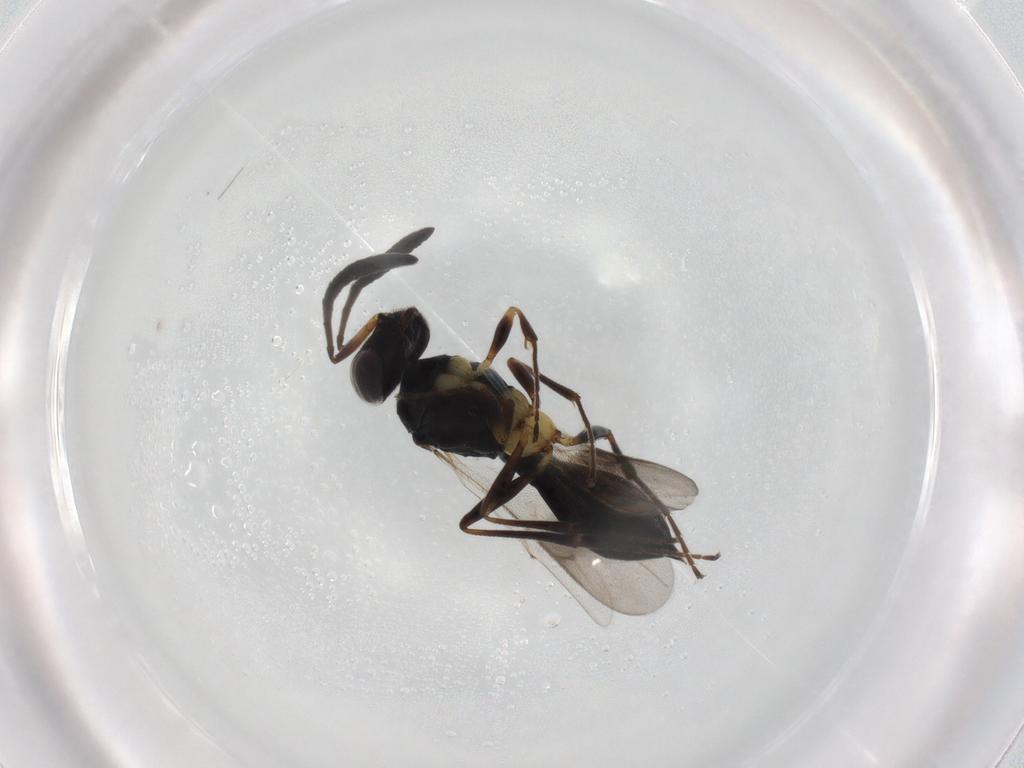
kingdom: Animalia
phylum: Arthropoda
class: Insecta
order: Hymenoptera
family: Scelionidae
